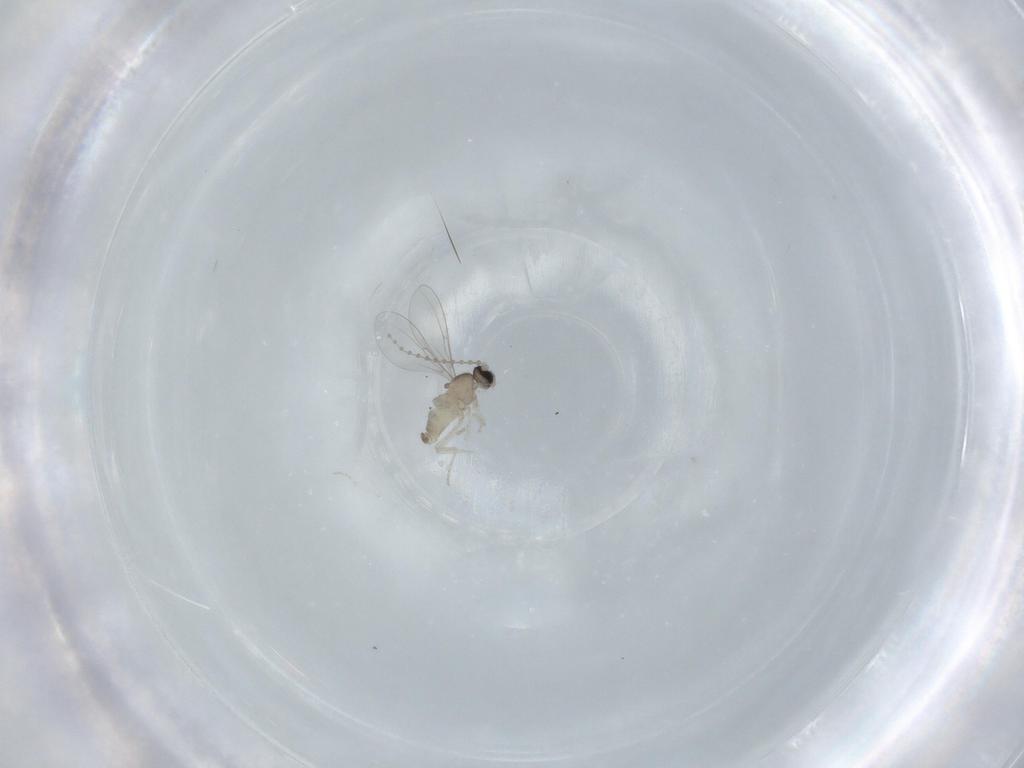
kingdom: Animalia
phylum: Arthropoda
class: Insecta
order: Diptera
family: Cecidomyiidae
